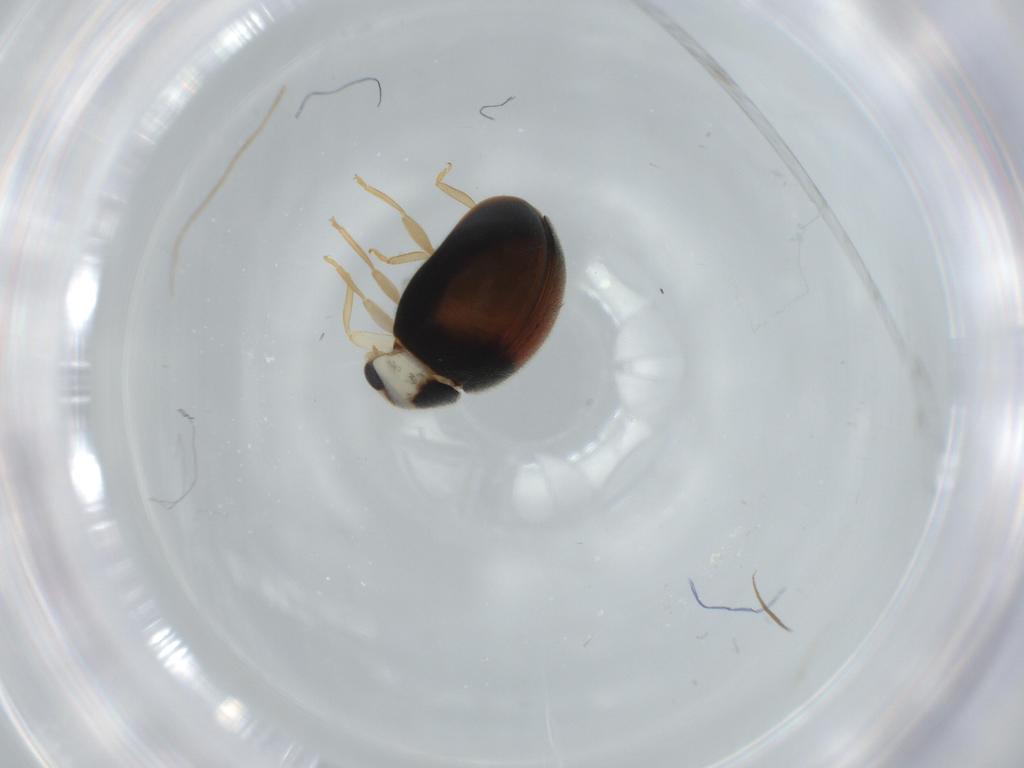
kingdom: Animalia
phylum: Arthropoda
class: Insecta
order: Coleoptera
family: Coccinellidae
